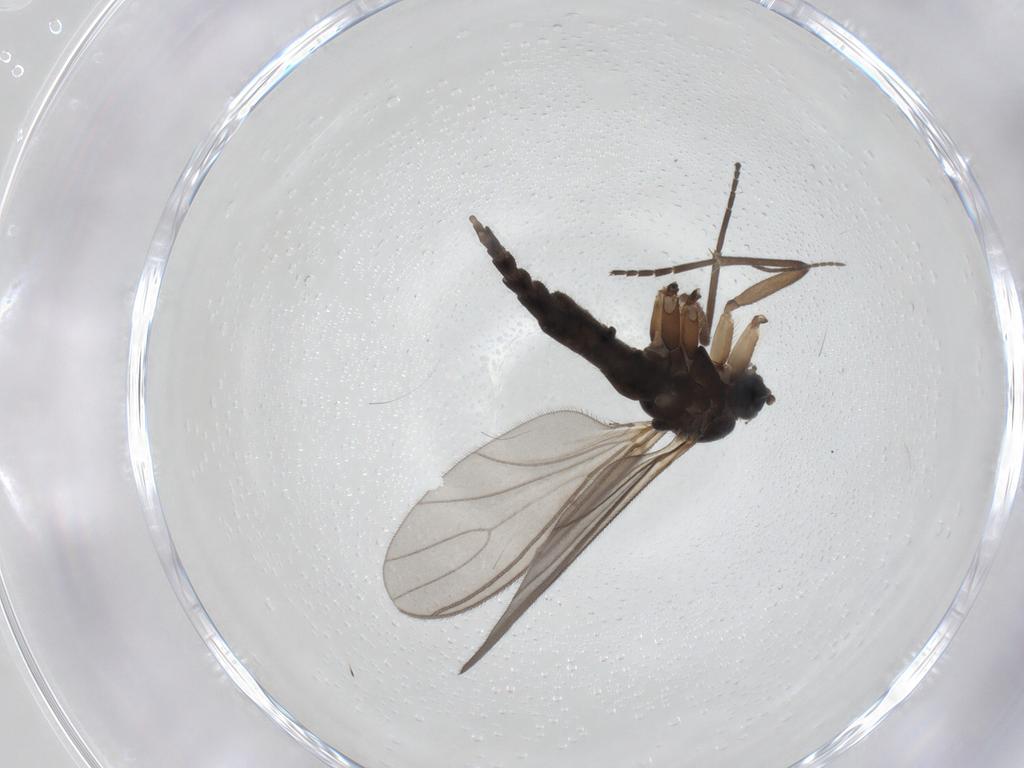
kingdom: Animalia
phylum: Arthropoda
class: Insecta
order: Diptera
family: Sciaridae
